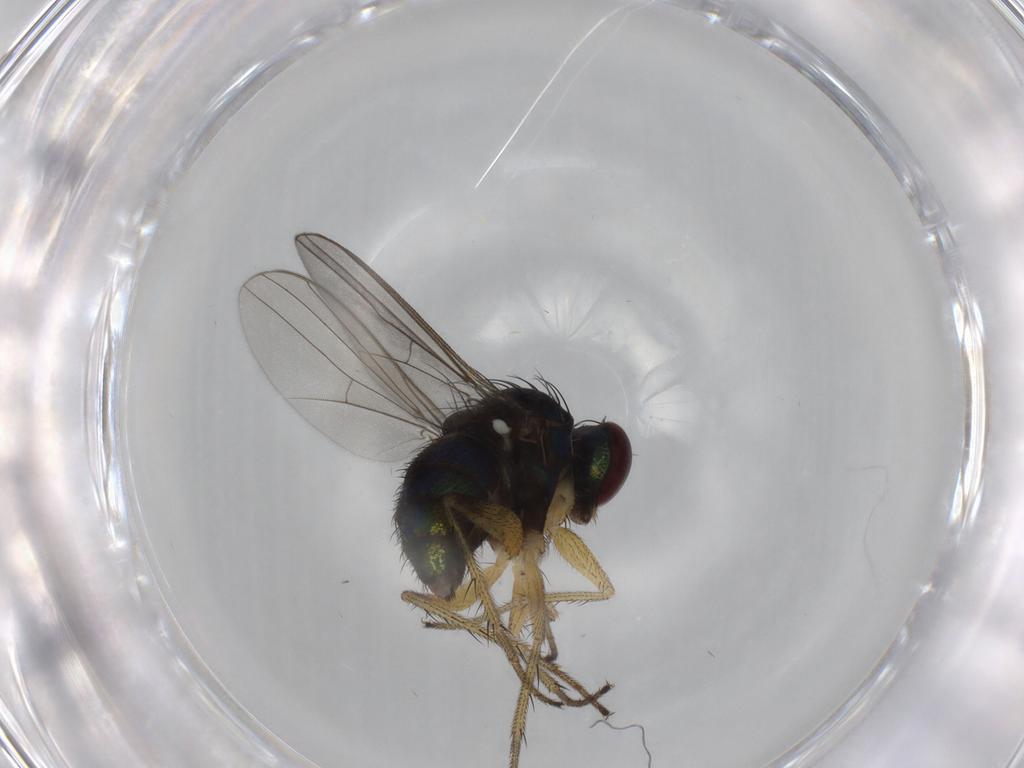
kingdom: Animalia
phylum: Arthropoda
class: Insecta
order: Diptera
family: Dolichopodidae
